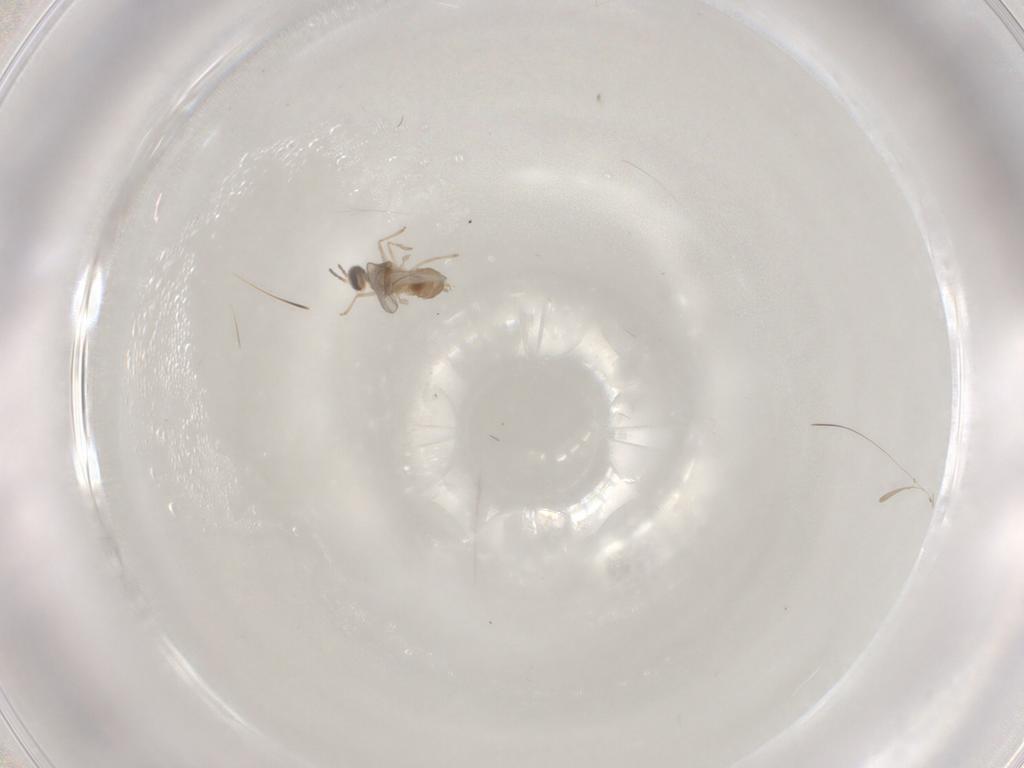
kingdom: Animalia
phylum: Arthropoda
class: Insecta
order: Diptera
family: Cecidomyiidae
